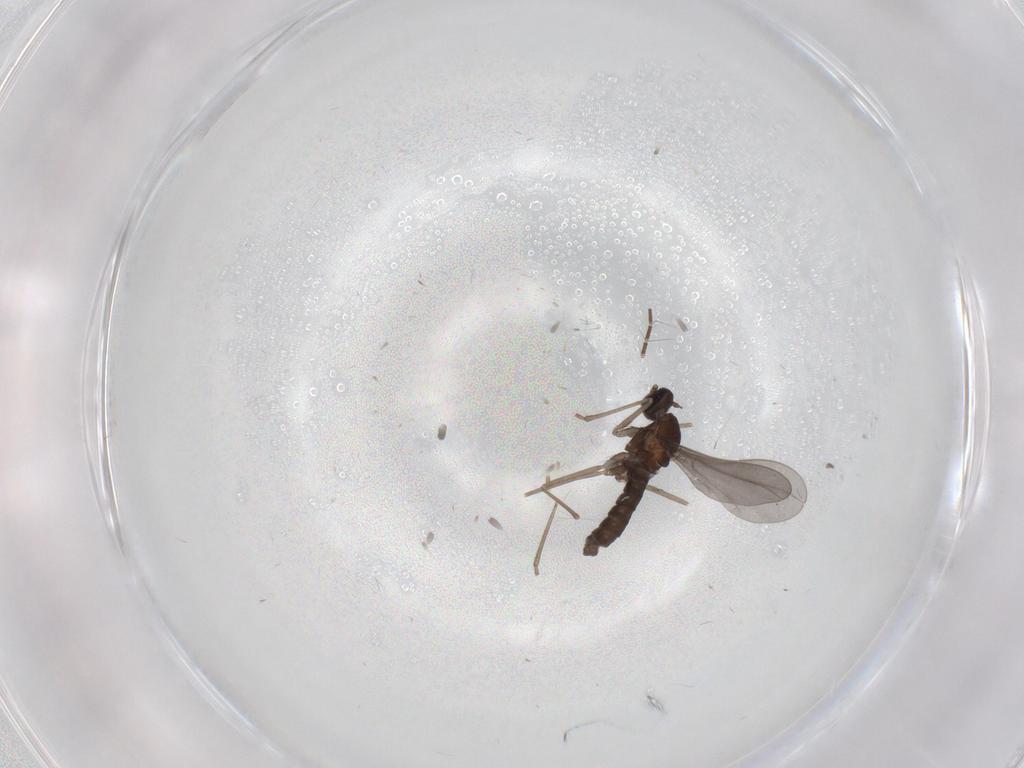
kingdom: Animalia
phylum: Arthropoda
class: Insecta
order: Diptera
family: Cecidomyiidae
